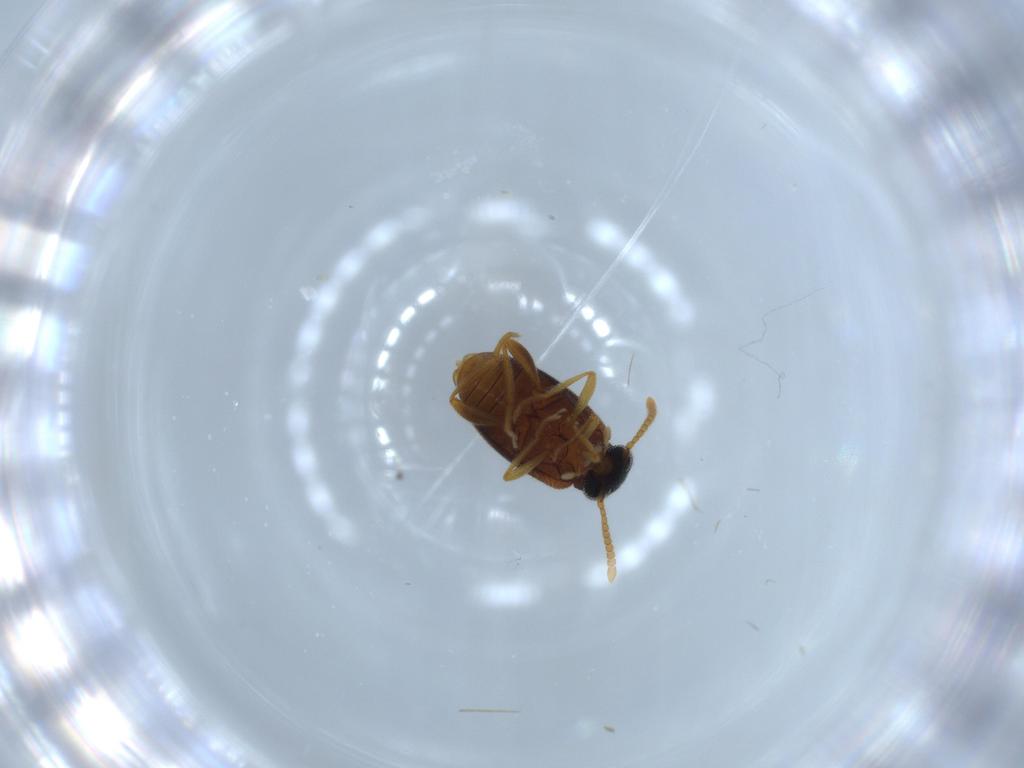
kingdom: Animalia
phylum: Arthropoda
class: Insecta
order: Coleoptera
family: Aderidae
